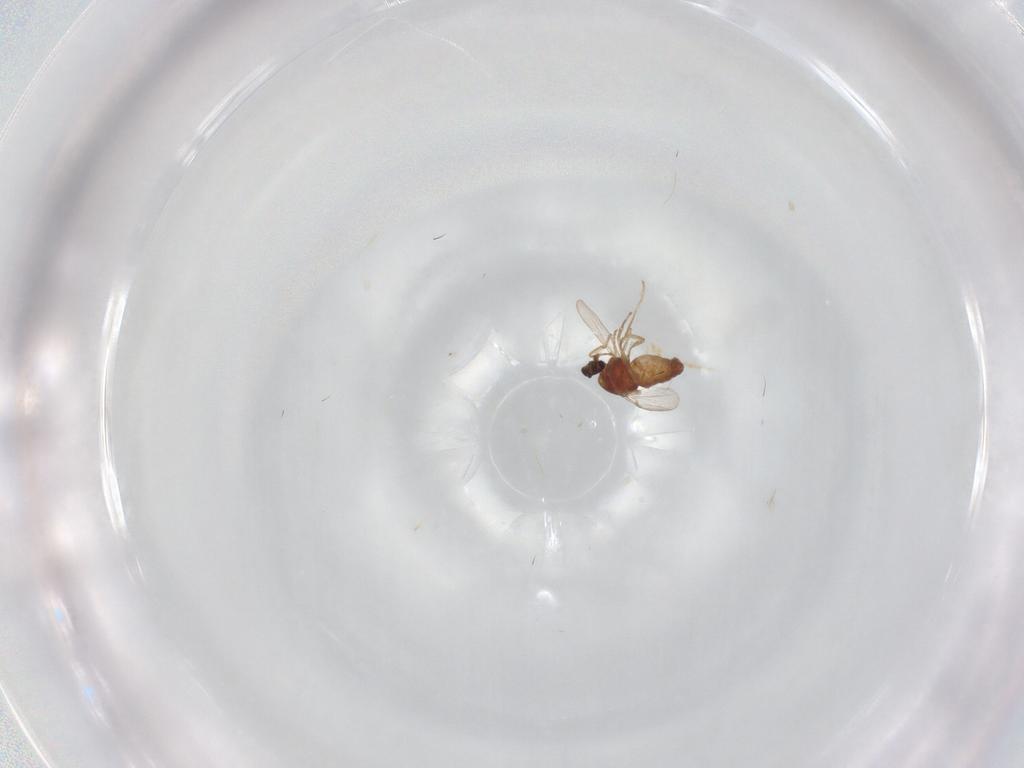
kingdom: Animalia
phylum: Arthropoda
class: Insecta
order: Diptera
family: Ceratopogonidae
